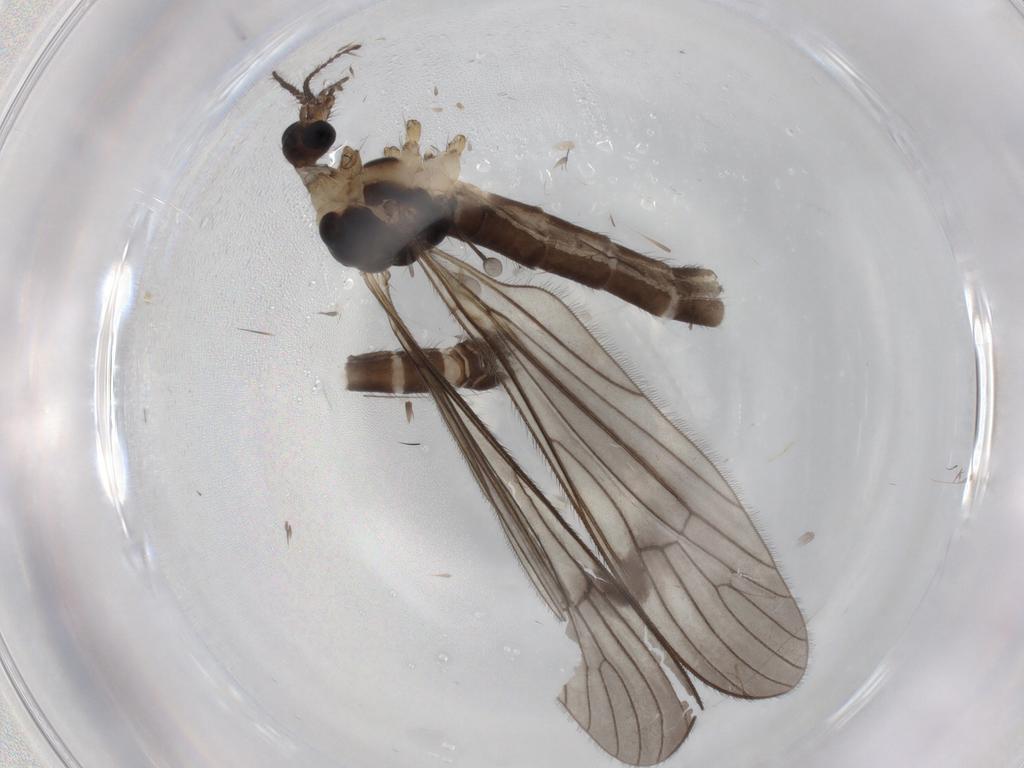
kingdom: Animalia
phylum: Arthropoda
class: Insecta
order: Diptera
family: Limoniidae
